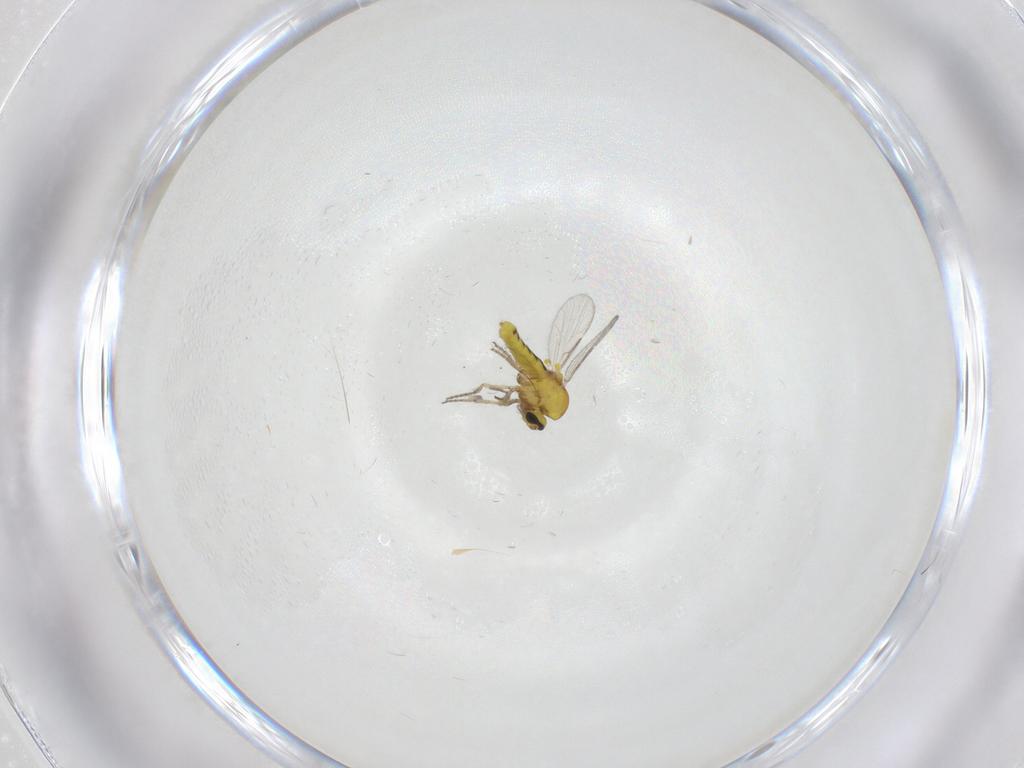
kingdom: Animalia
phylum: Arthropoda
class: Insecta
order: Diptera
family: Ceratopogonidae
